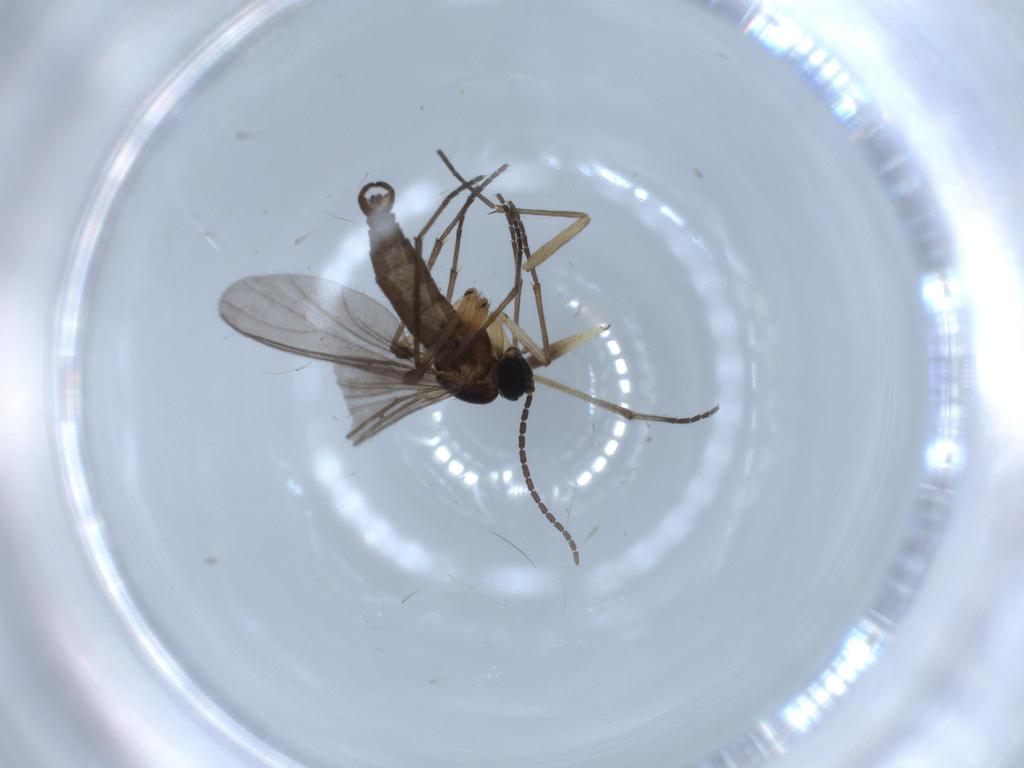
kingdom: Animalia
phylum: Arthropoda
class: Insecta
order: Diptera
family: Sciaridae
